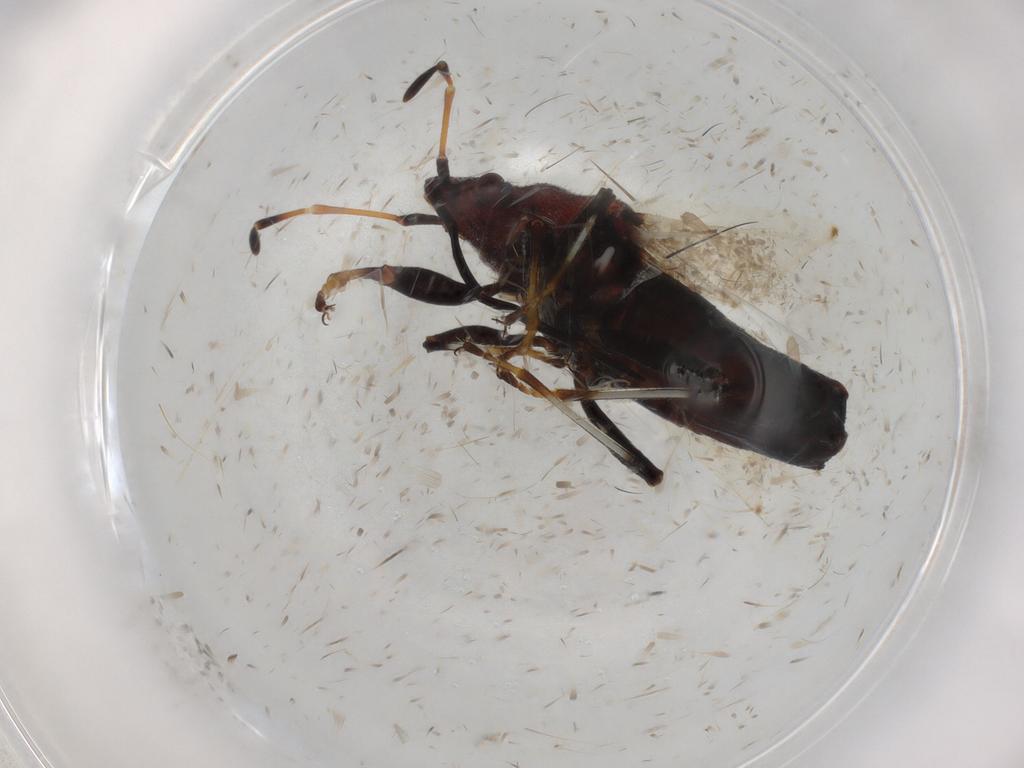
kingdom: Animalia
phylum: Arthropoda
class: Insecta
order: Hemiptera
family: Oxycarenidae
